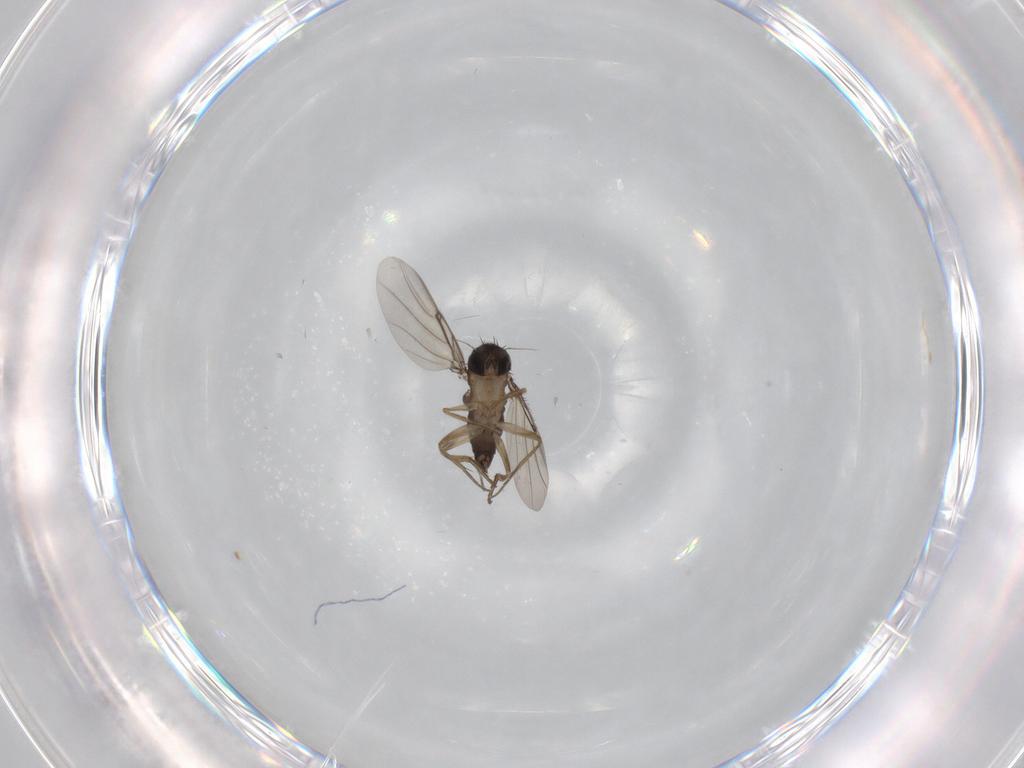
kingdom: Animalia
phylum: Arthropoda
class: Insecta
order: Diptera
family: Phoridae
